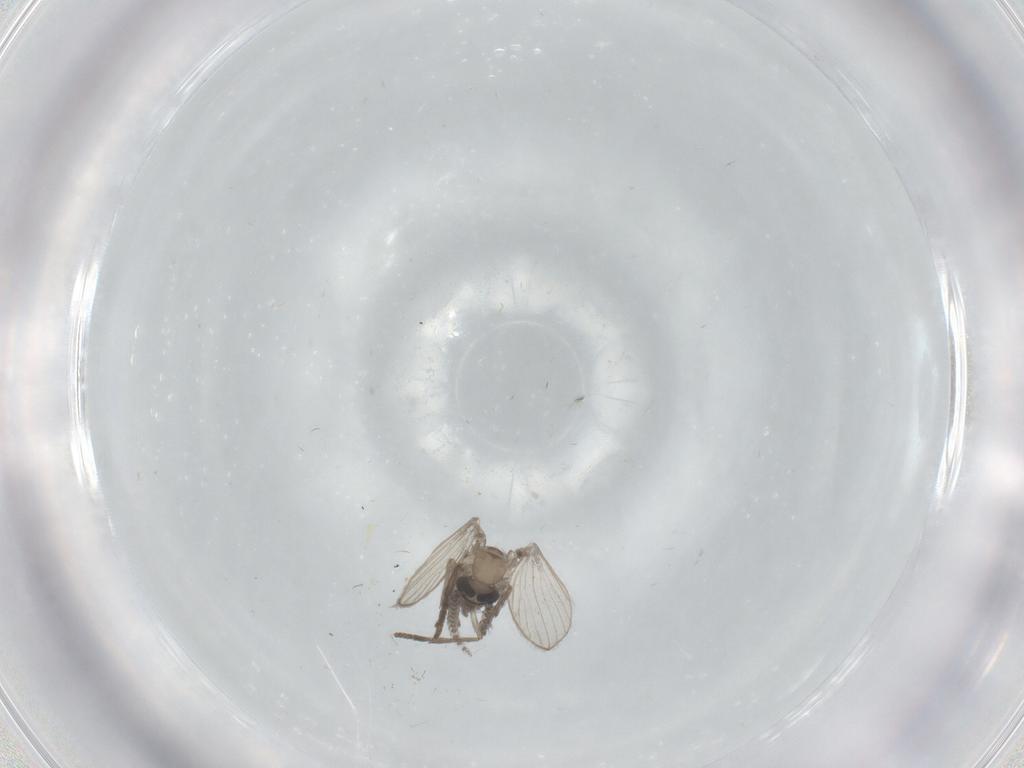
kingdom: Animalia
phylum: Arthropoda
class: Insecta
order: Diptera
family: Psychodidae
